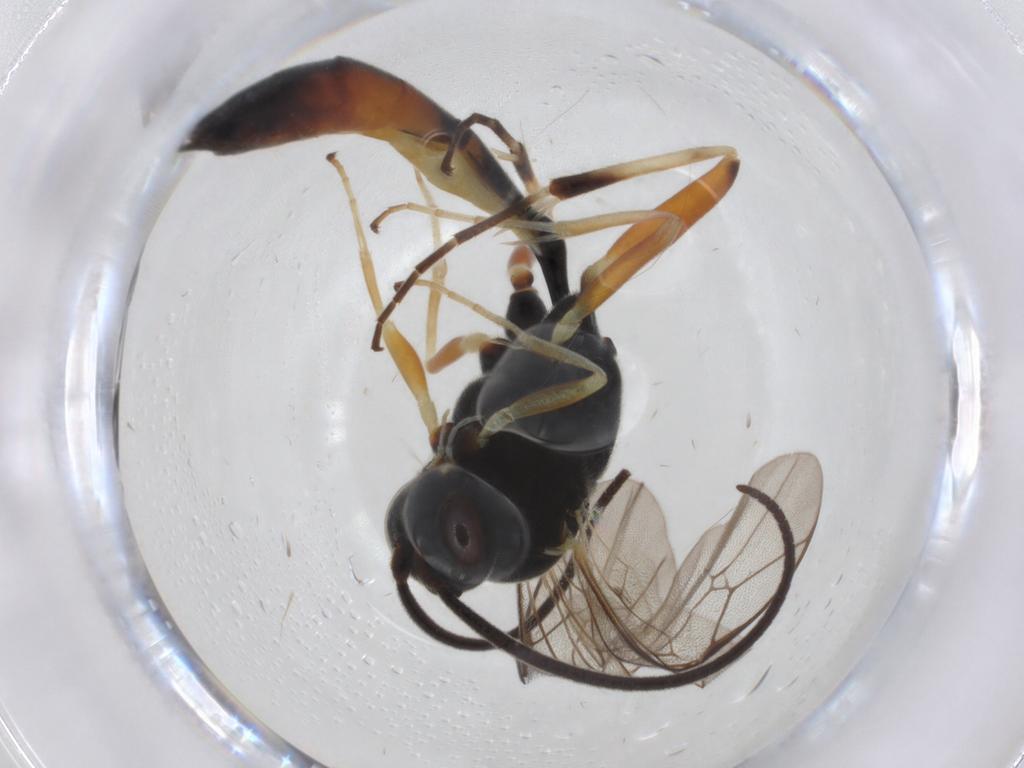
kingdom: Animalia
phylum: Arthropoda
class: Insecta
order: Hymenoptera
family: Ichneumonidae
